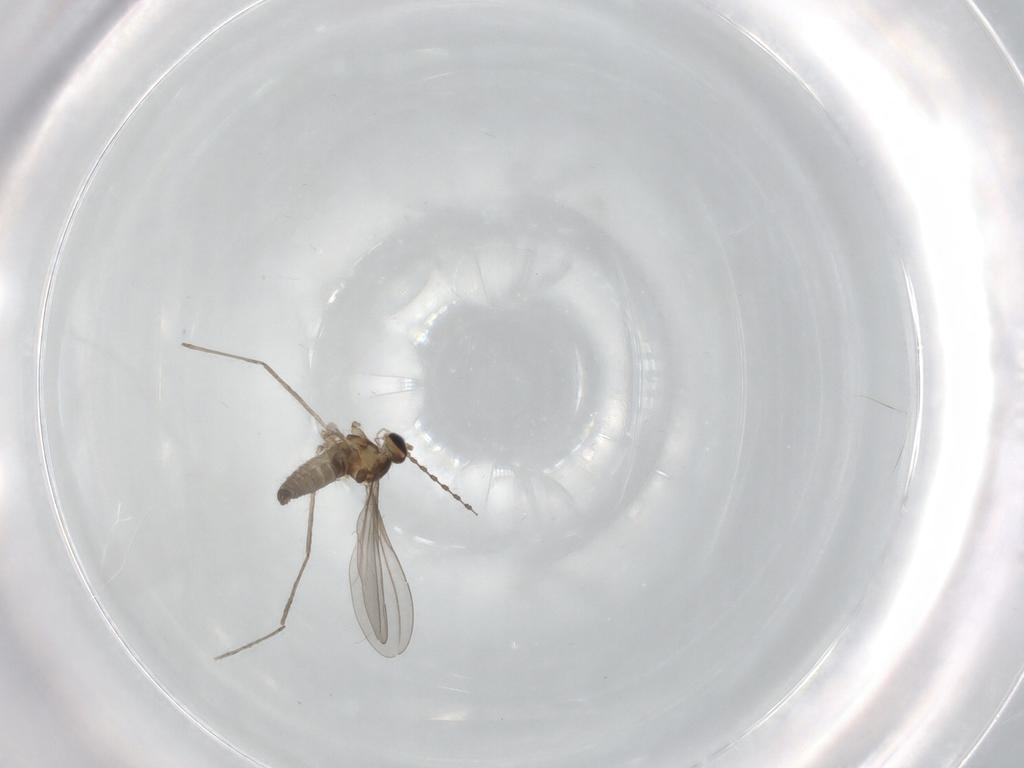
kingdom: Animalia
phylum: Arthropoda
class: Insecta
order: Diptera
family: Cecidomyiidae
